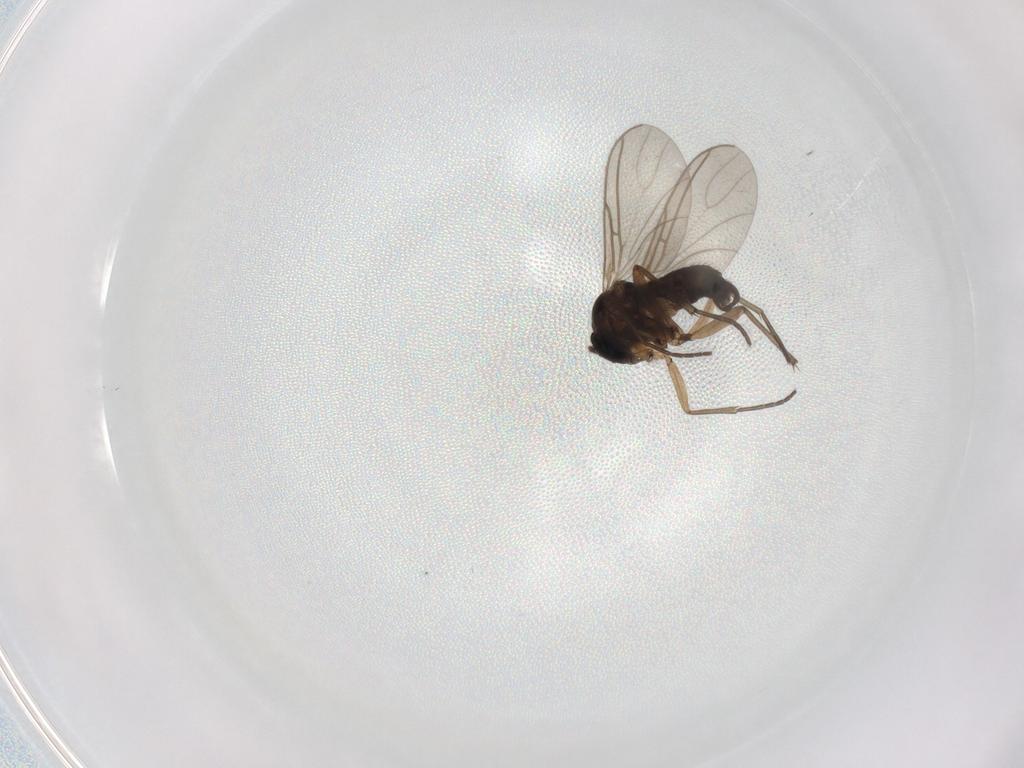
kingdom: Animalia
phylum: Arthropoda
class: Insecta
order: Diptera
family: Sciaridae
